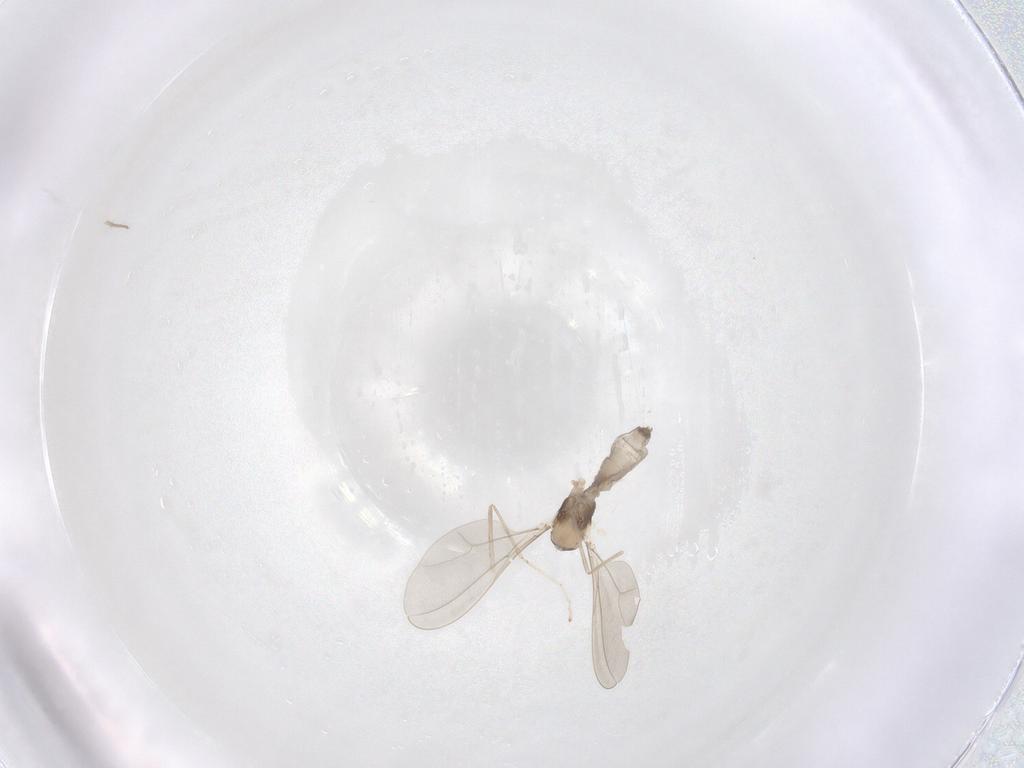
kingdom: Animalia
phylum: Arthropoda
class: Insecta
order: Diptera
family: Cecidomyiidae
